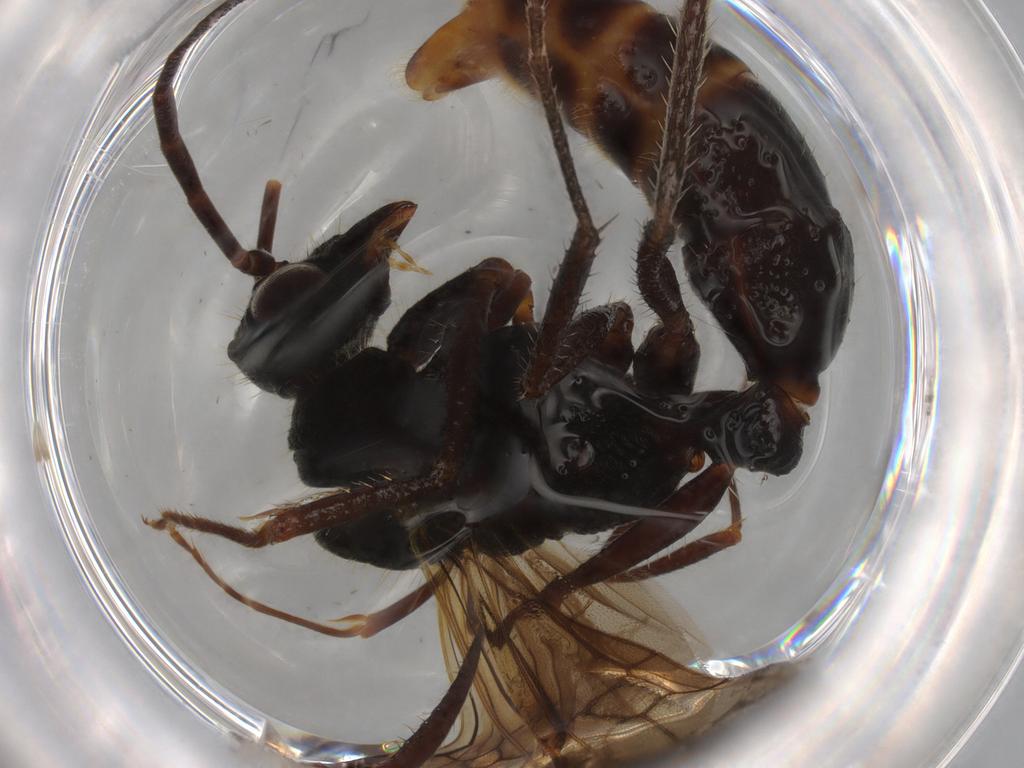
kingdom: Animalia
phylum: Arthropoda
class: Insecta
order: Hymenoptera
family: Formicidae
